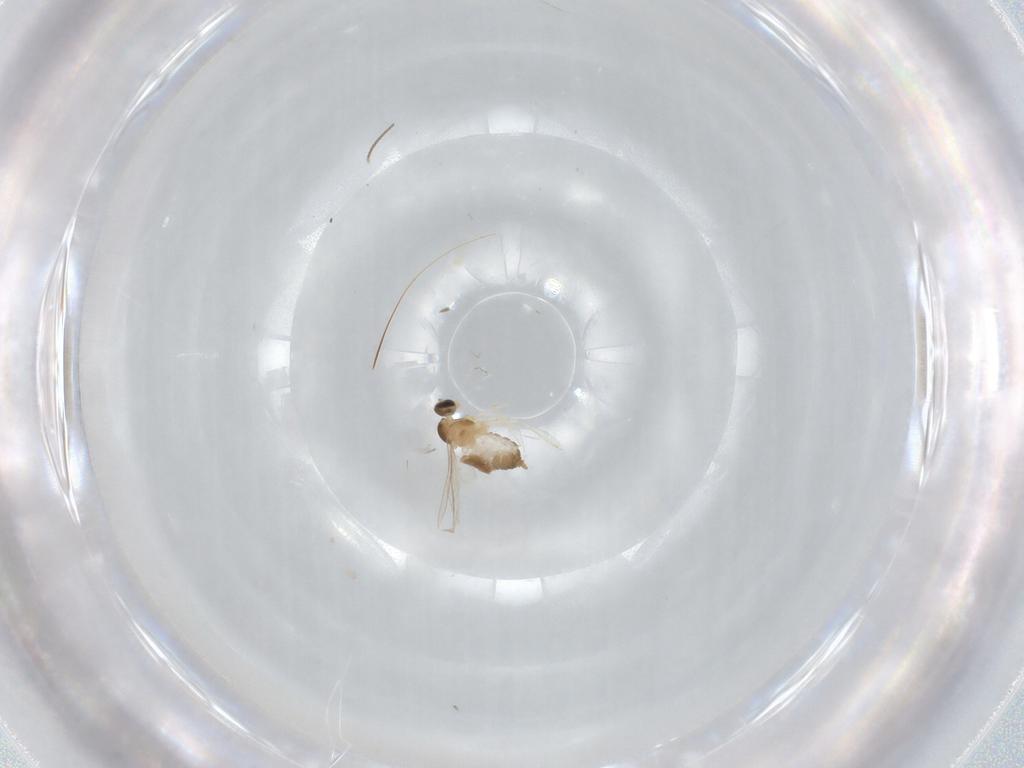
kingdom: Animalia
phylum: Arthropoda
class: Insecta
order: Diptera
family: Cecidomyiidae
